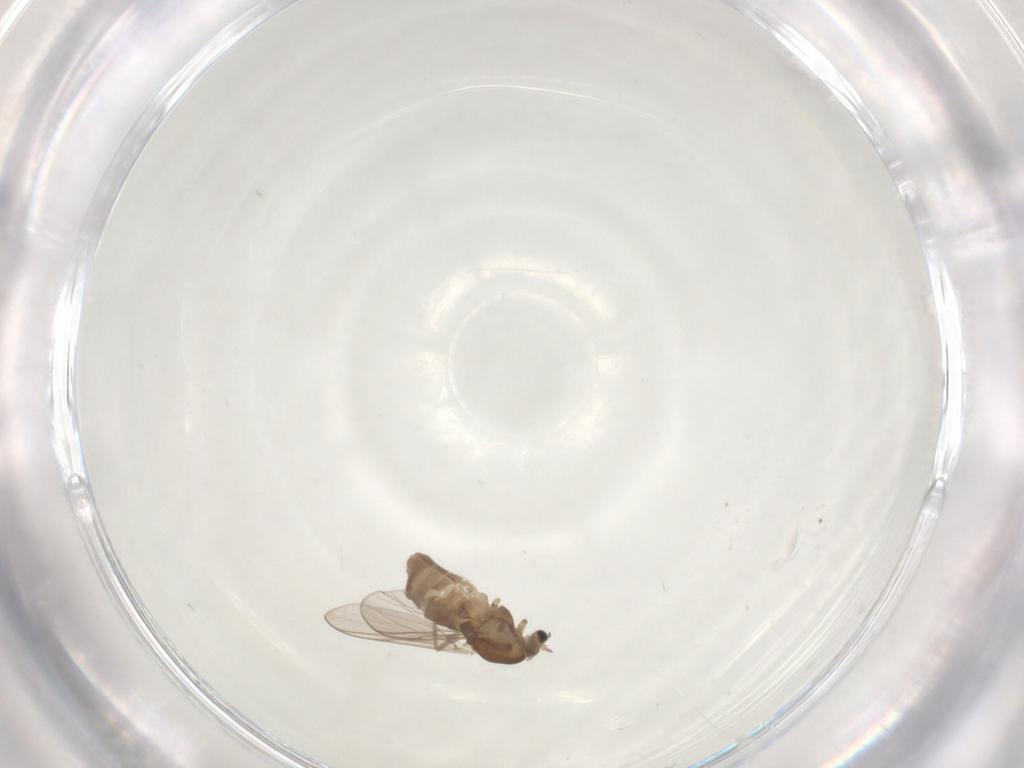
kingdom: Animalia
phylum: Arthropoda
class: Insecta
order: Diptera
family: Chironomidae
